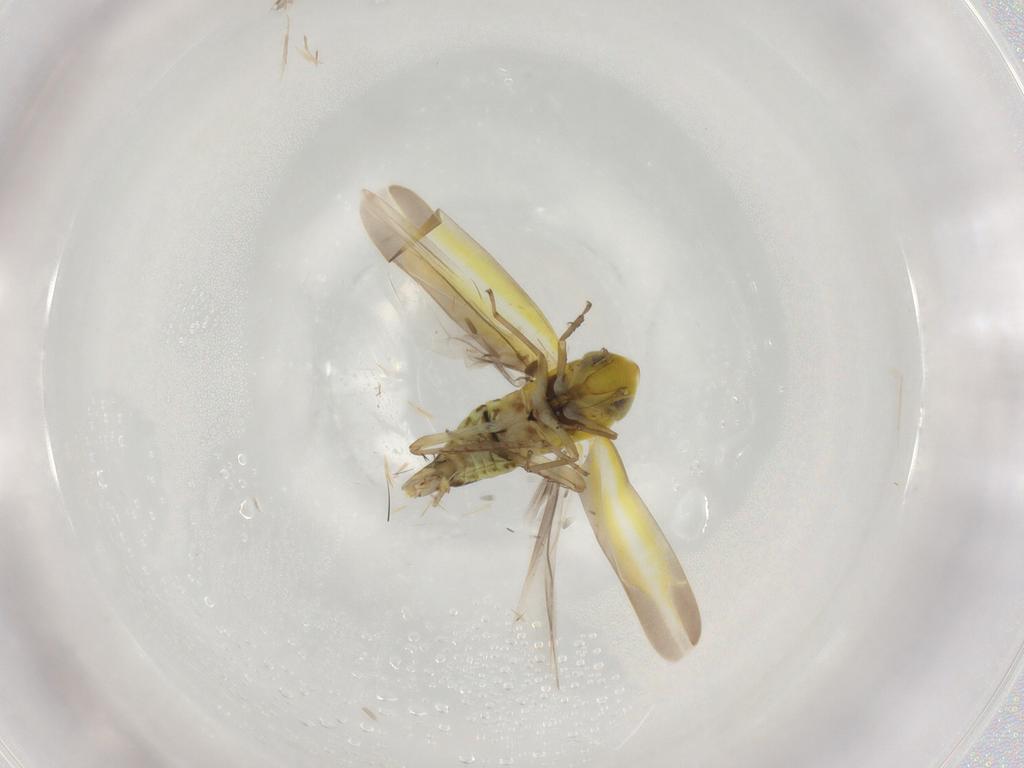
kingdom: Animalia
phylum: Arthropoda
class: Insecta
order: Hemiptera
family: Cicadellidae
